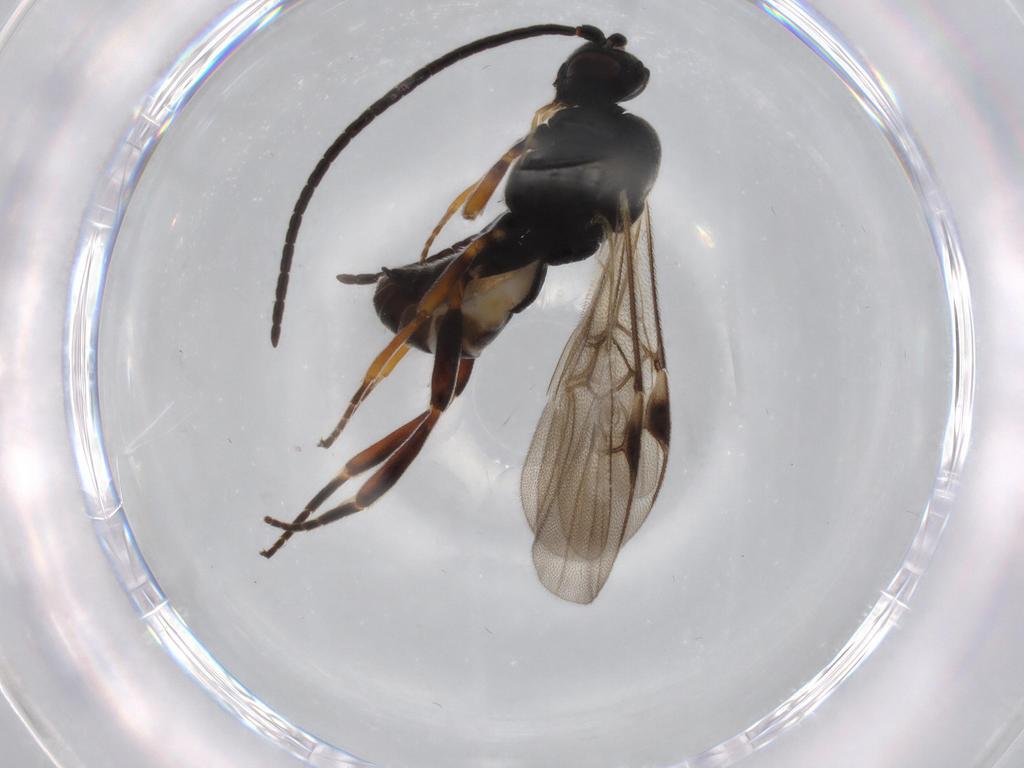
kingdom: Animalia
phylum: Arthropoda
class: Insecta
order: Hymenoptera
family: Braconidae
